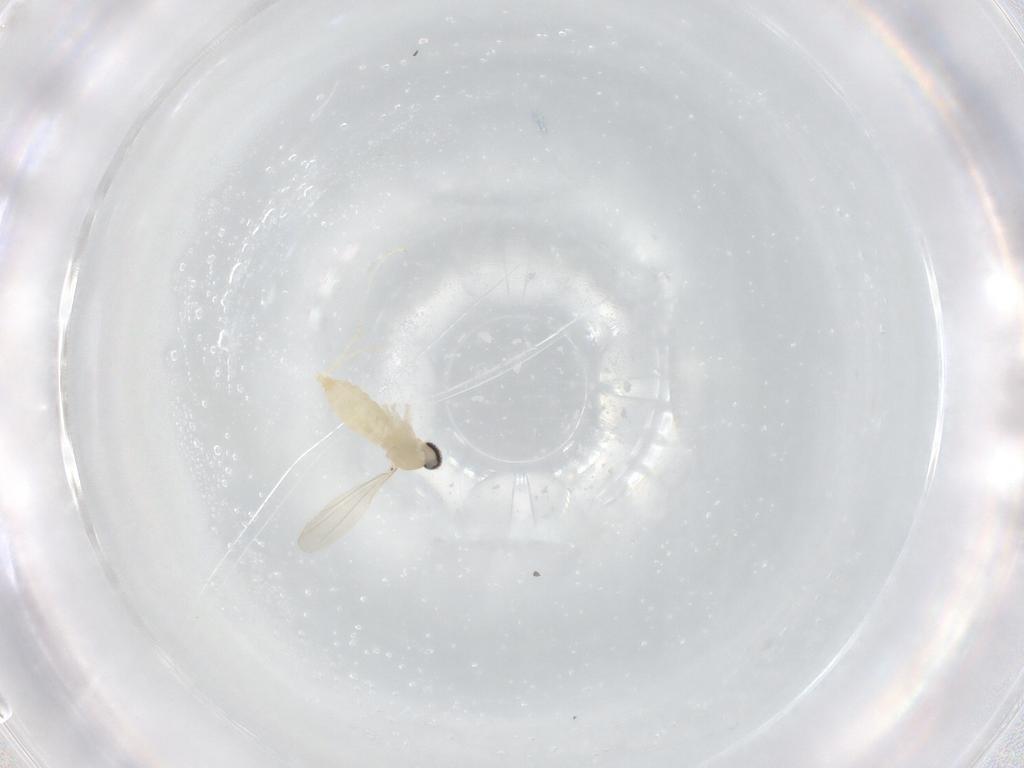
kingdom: Animalia
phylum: Arthropoda
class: Insecta
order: Diptera
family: Cecidomyiidae
